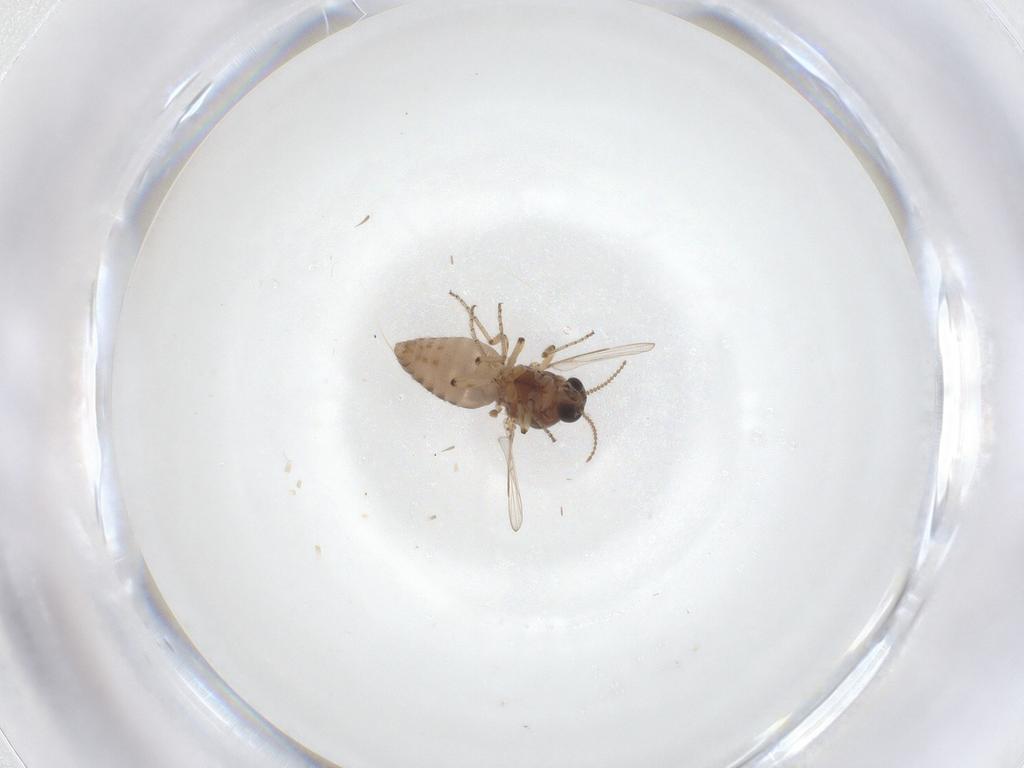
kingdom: Animalia
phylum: Arthropoda
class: Insecta
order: Diptera
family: Ceratopogonidae
